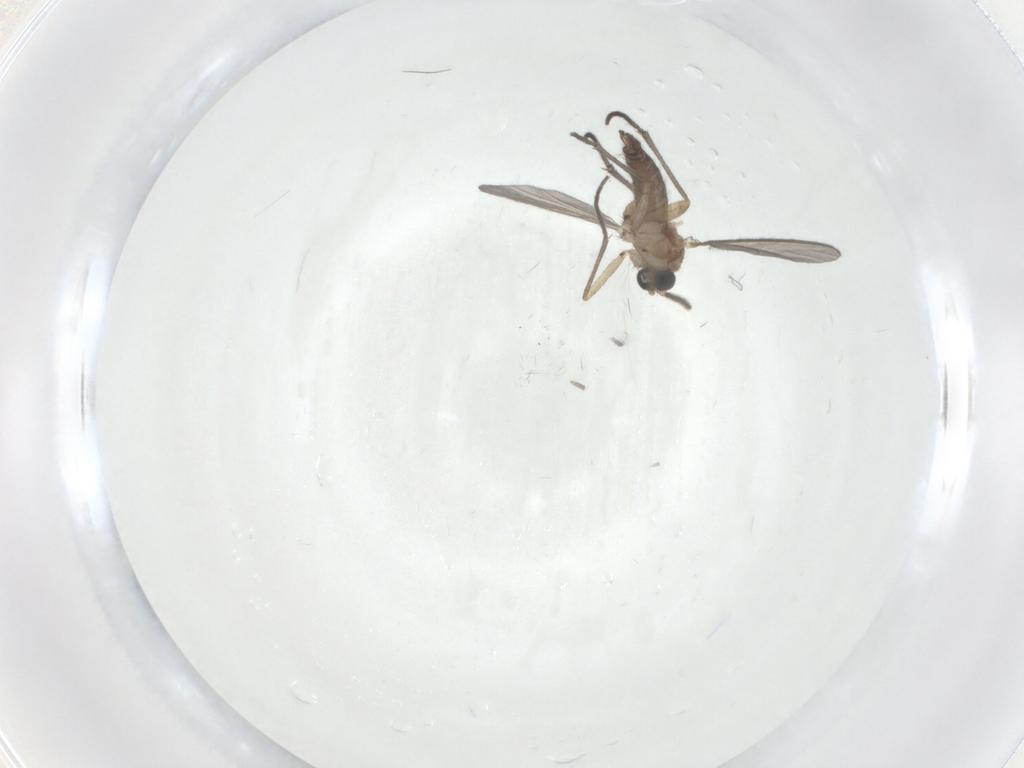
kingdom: Animalia
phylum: Arthropoda
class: Insecta
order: Diptera
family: Sciaridae
